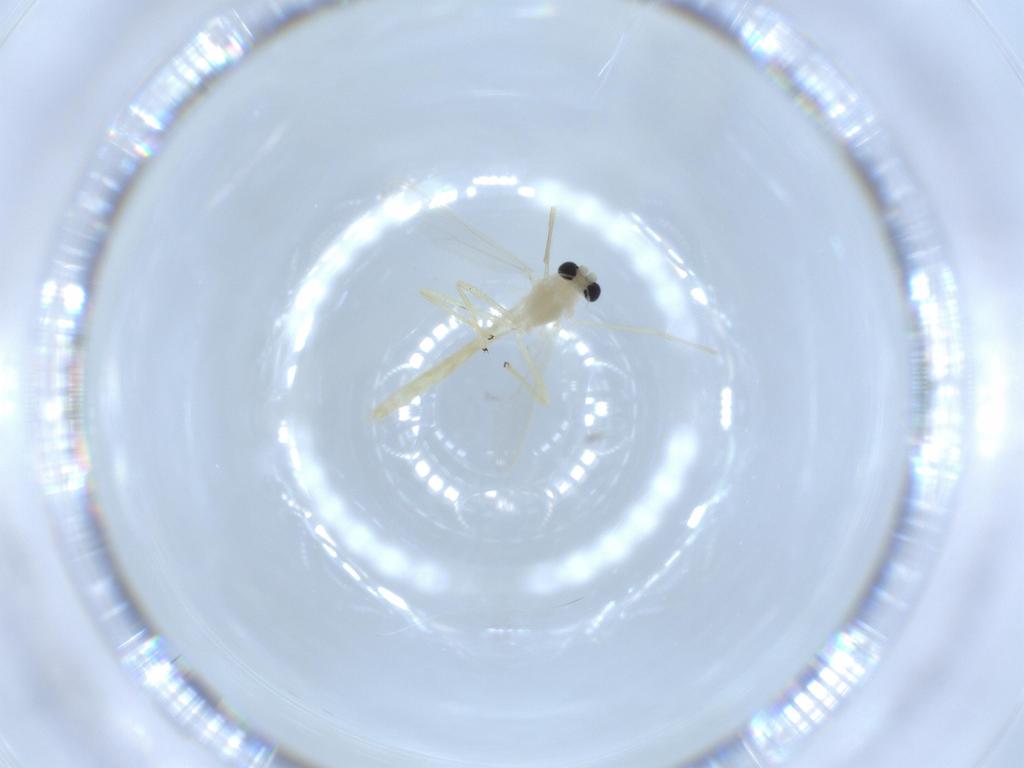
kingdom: Animalia
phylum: Arthropoda
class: Insecta
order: Diptera
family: Chironomidae
